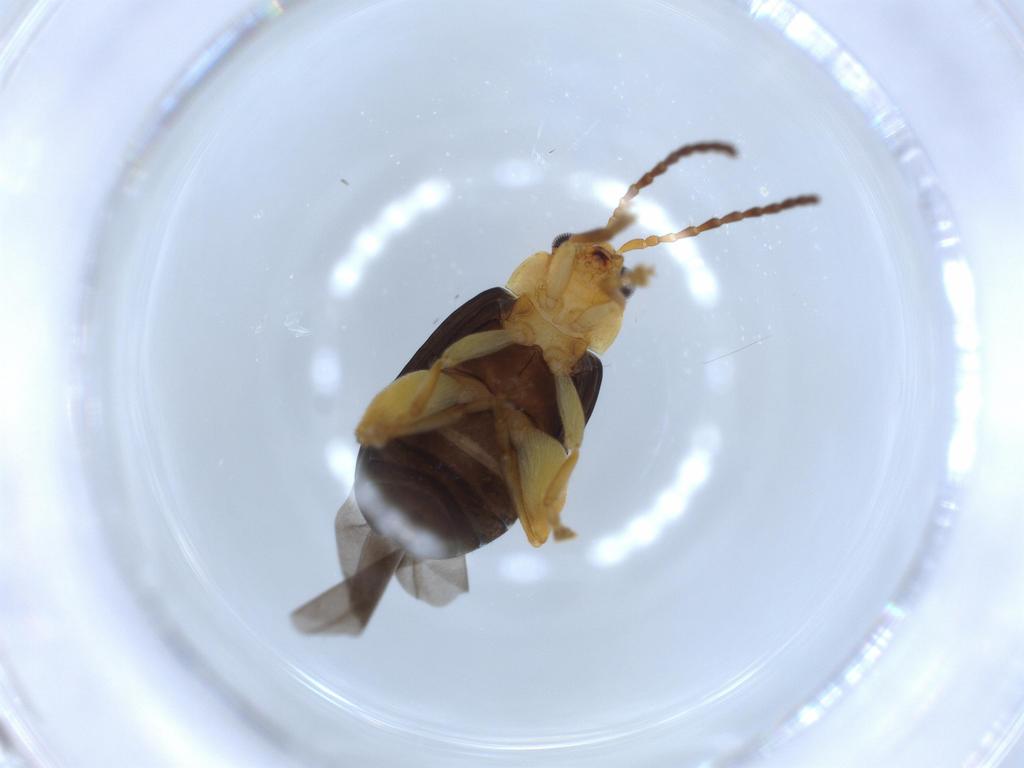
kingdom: Animalia
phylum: Arthropoda
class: Insecta
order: Coleoptera
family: Chrysomelidae
